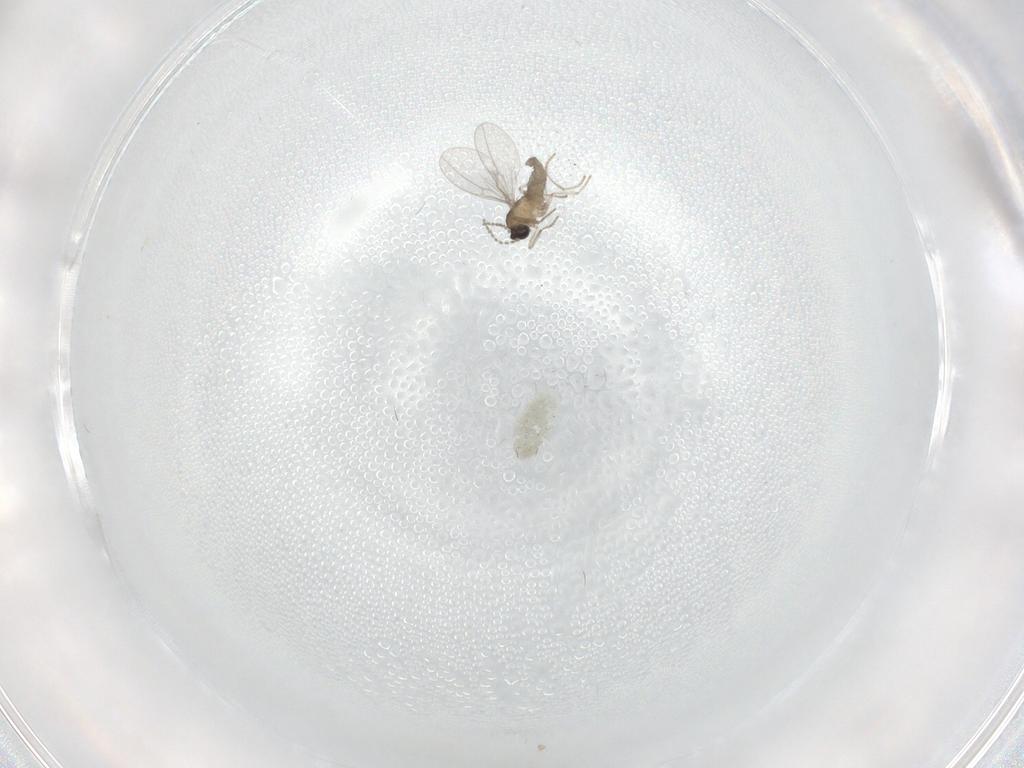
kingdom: Animalia
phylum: Arthropoda
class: Insecta
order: Diptera
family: Cecidomyiidae
